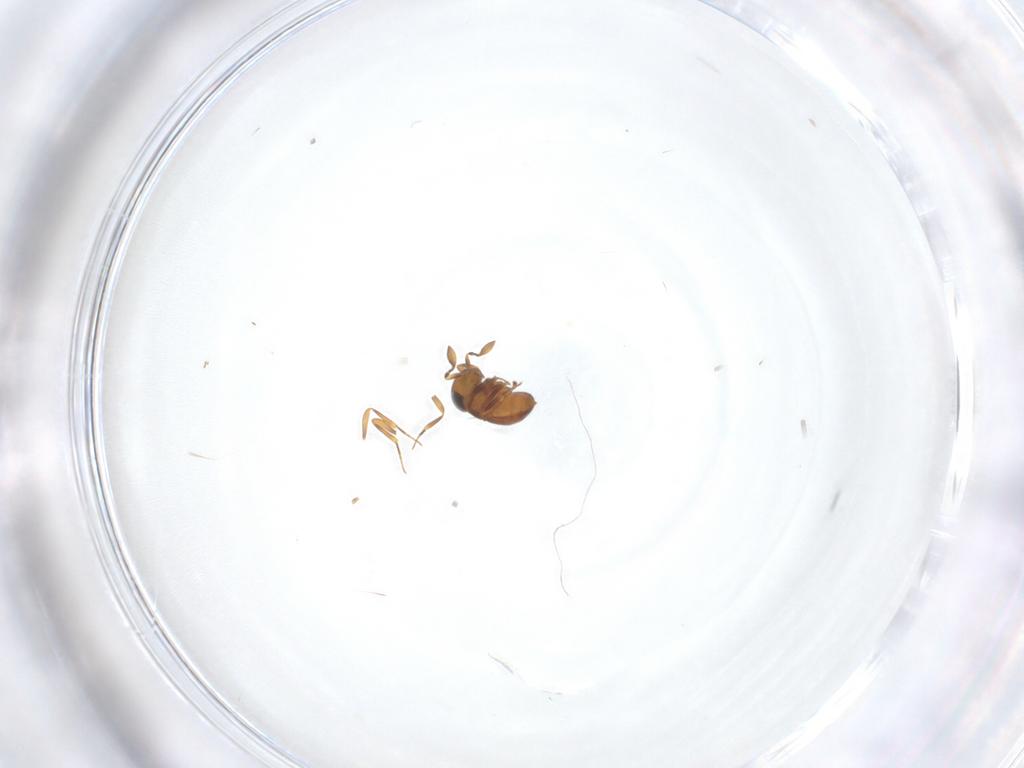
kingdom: Animalia
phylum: Arthropoda
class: Insecta
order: Hymenoptera
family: Scelionidae
